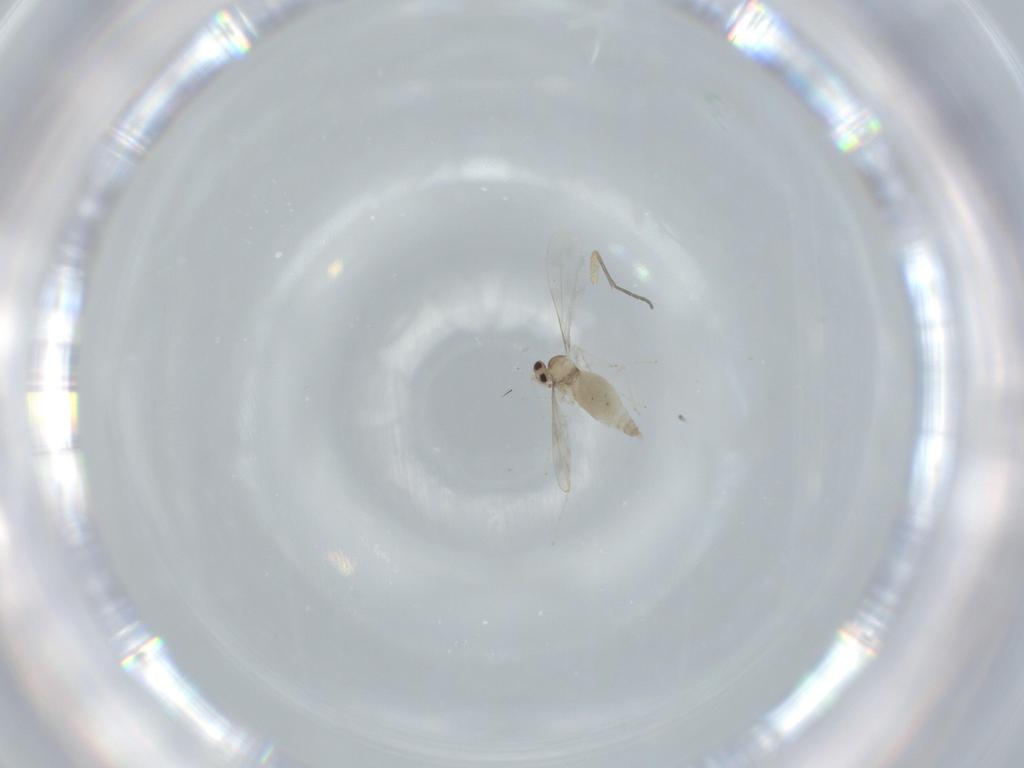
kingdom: Animalia
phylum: Arthropoda
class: Insecta
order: Diptera
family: Cecidomyiidae
